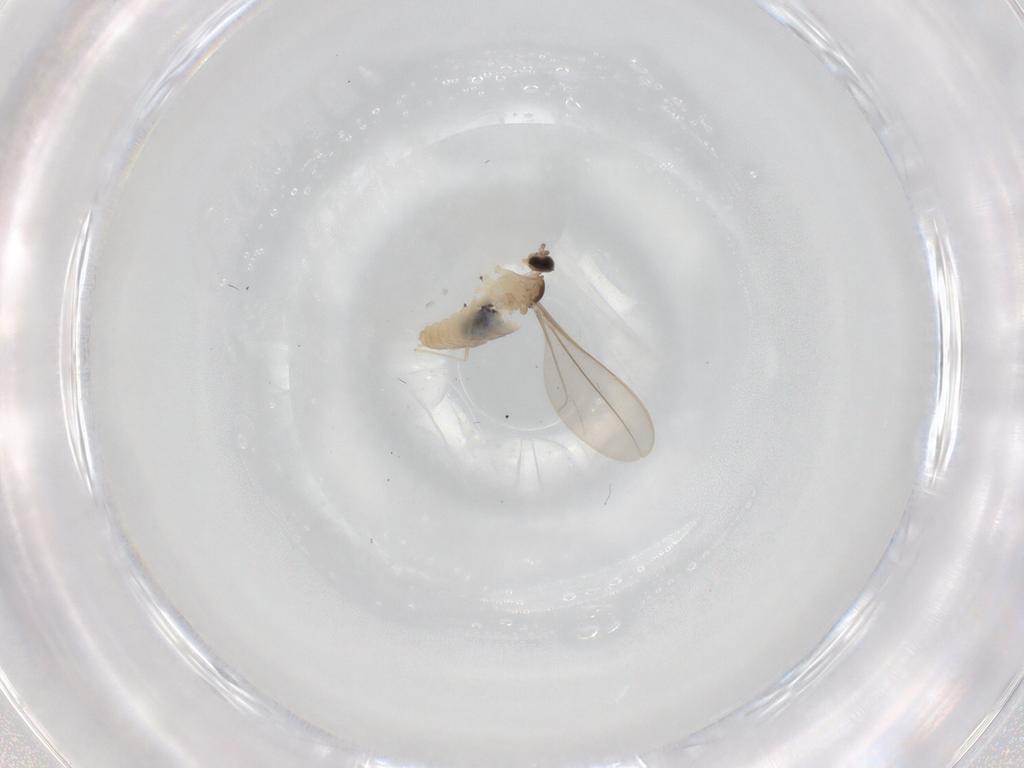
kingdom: Animalia
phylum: Arthropoda
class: Insecta
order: Diptera
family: Cecidomyiidae
